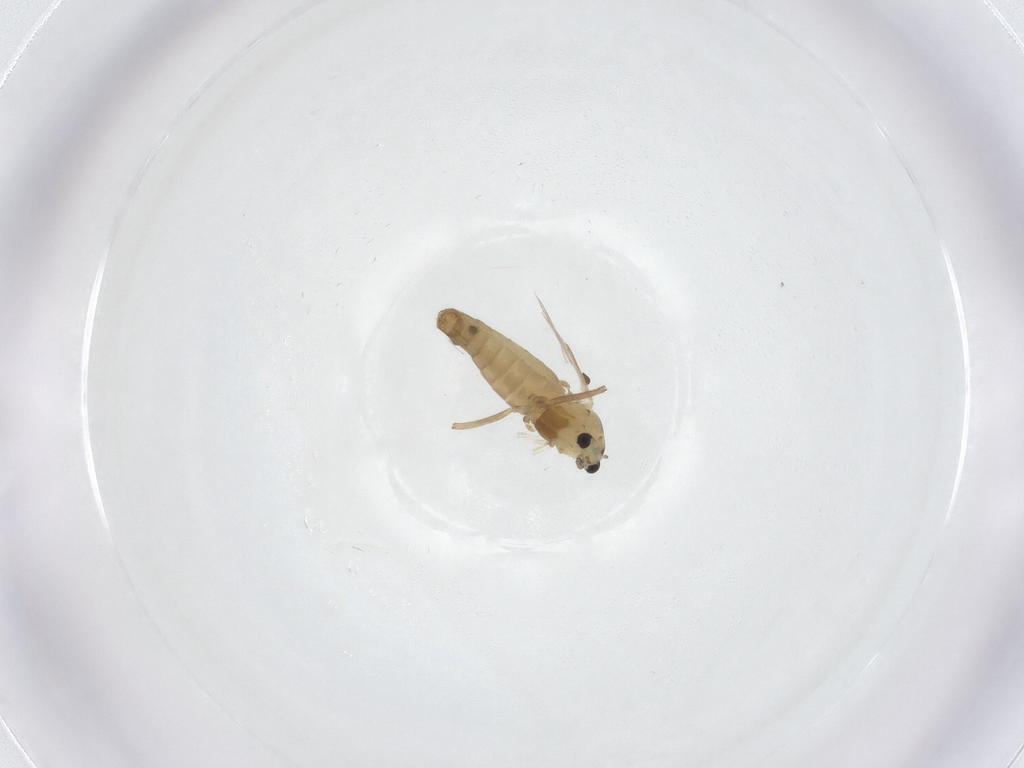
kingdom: Animalia
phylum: Arthropoda
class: Insecta
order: Diptera
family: Chironomidae
